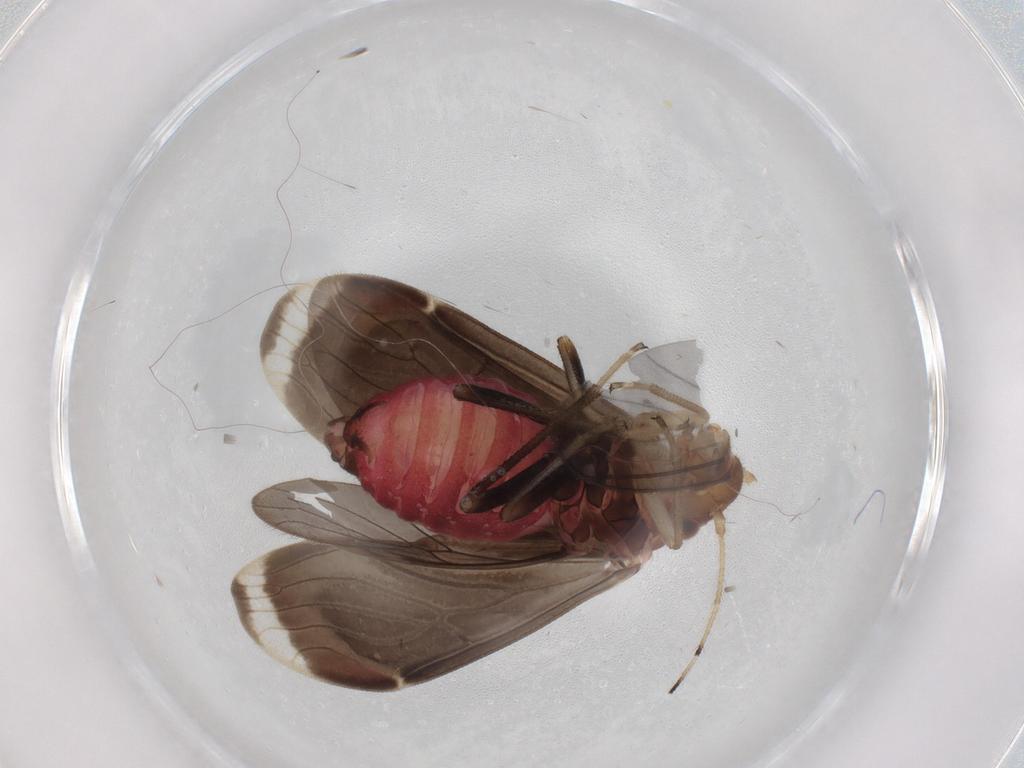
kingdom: Animalia
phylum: Arthropoda
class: Insecta
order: Psocodea
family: Amphipsocidae
